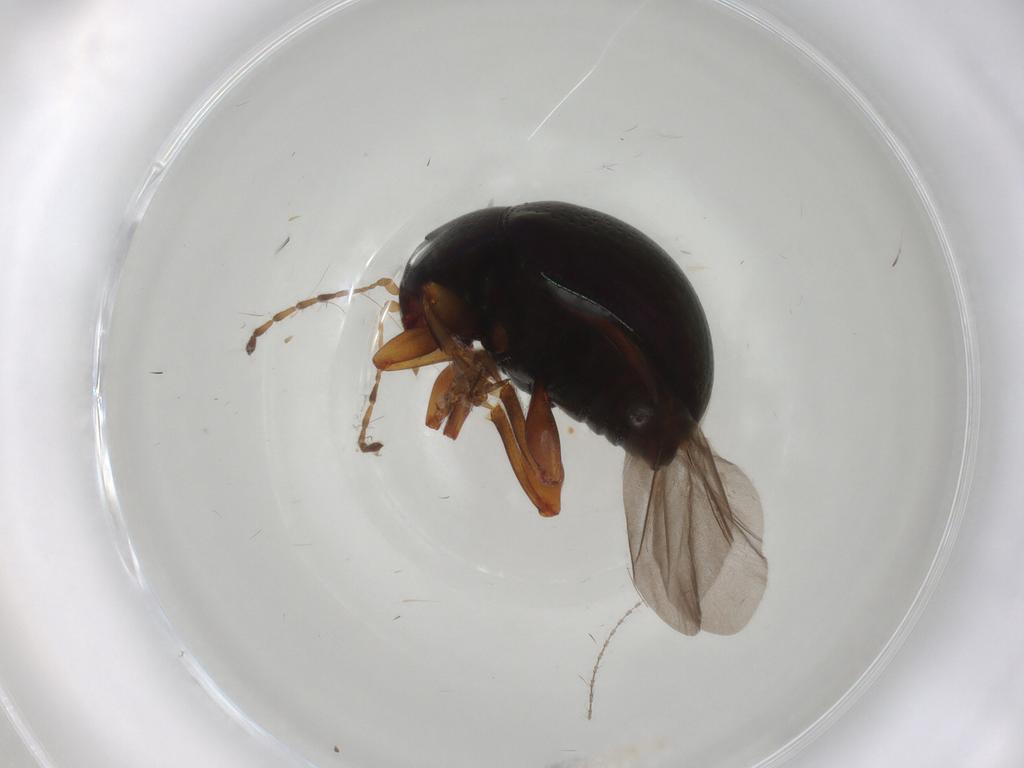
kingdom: Animalia
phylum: Arthropoda
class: Insecta
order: Coleoptera
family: Chrysomelidae
